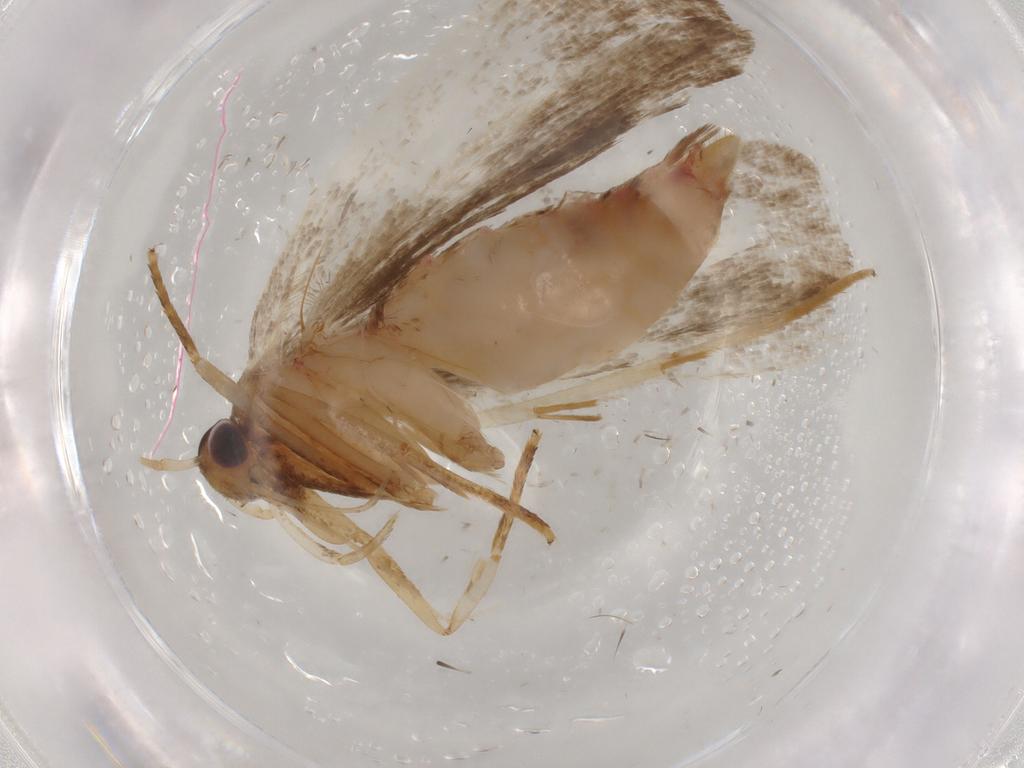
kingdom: Animalia
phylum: Arthropoda
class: Insecta
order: Lepidoptera
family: Autostichidae
